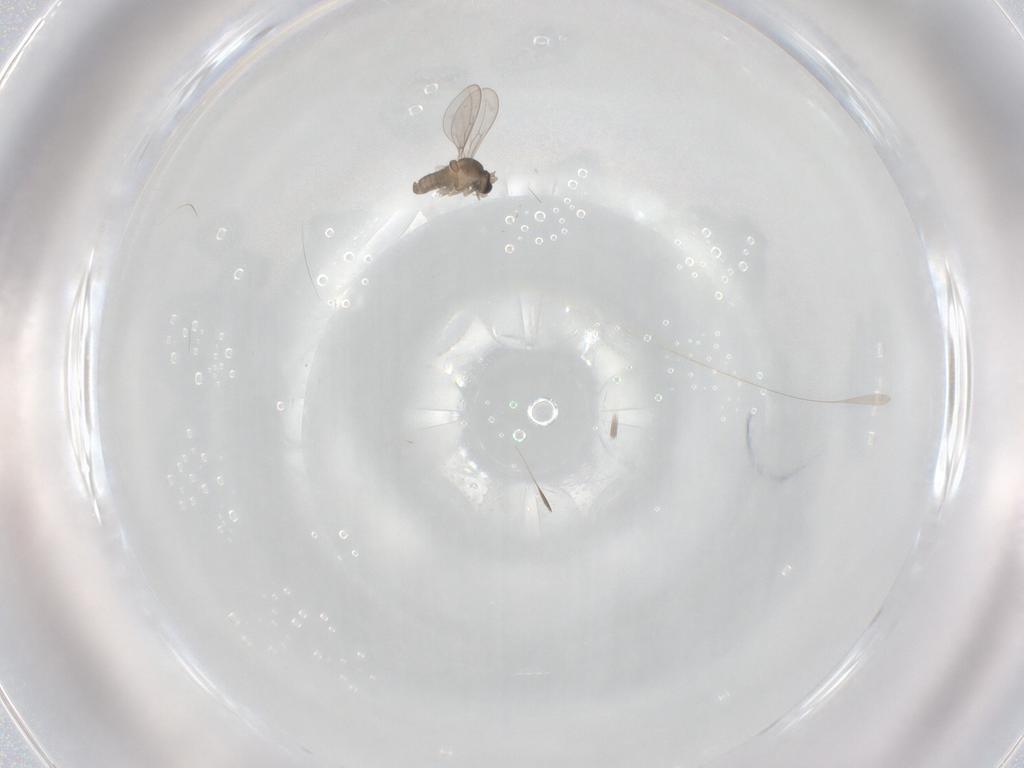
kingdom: Animalia
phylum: Arthropoda
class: Insecta
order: Diptera
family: Cecidomyiidae
